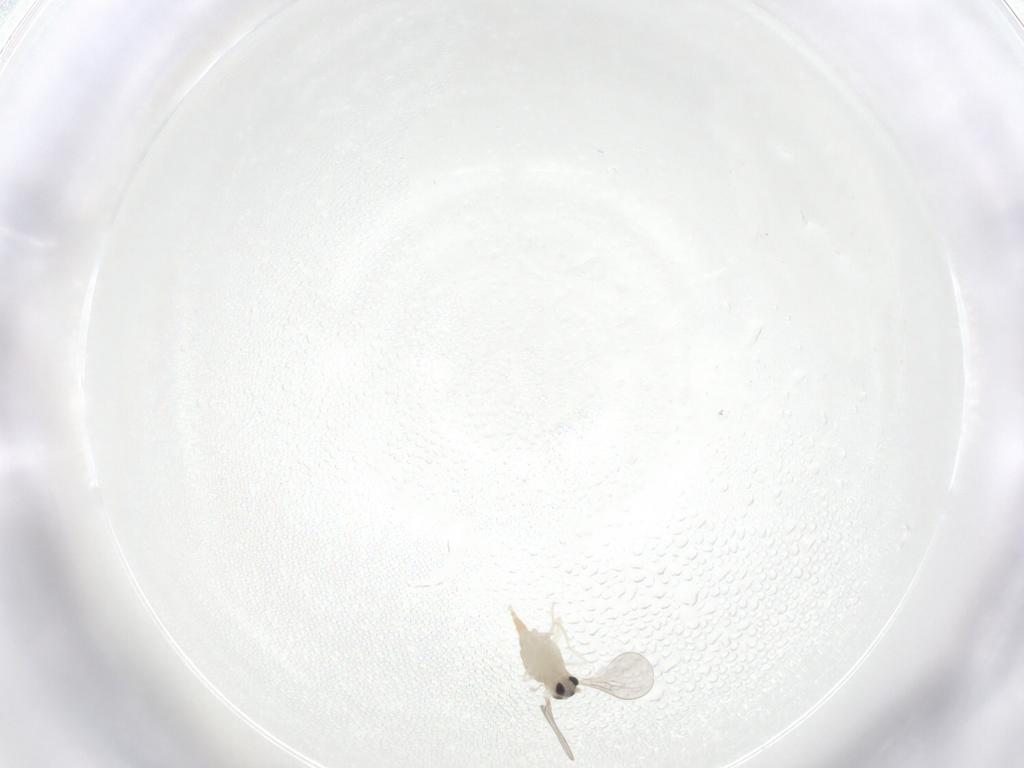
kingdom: Animalia
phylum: Arthropoda
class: Insecta
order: Diptera
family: Cecidomyiidae
